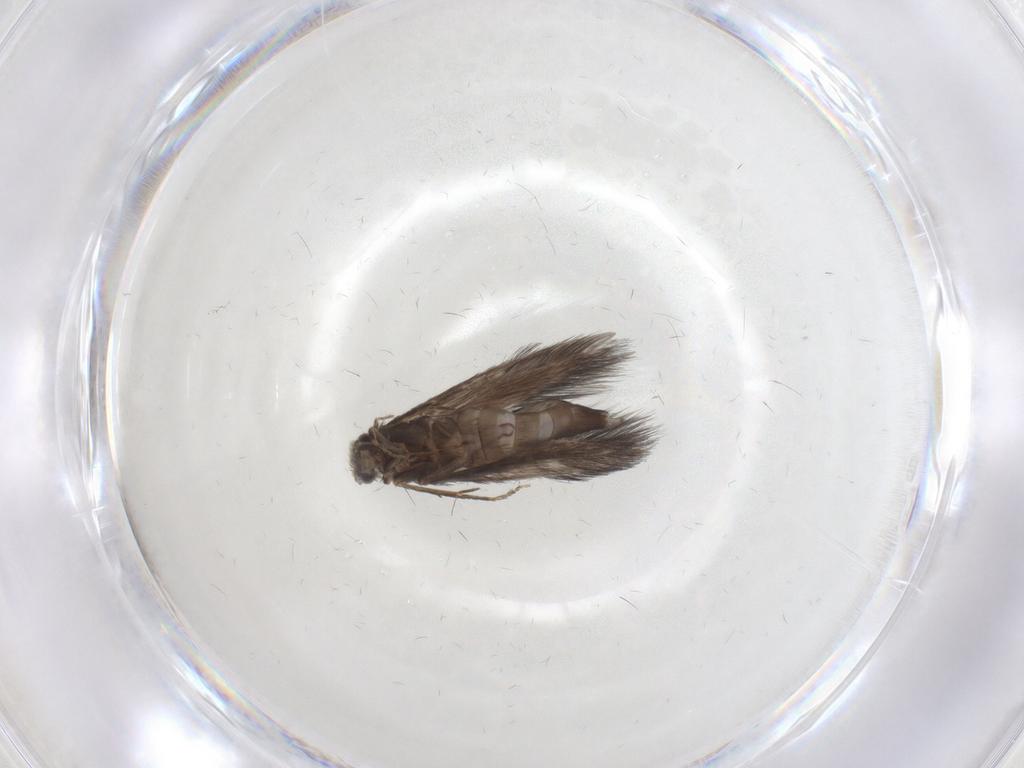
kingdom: Animalia
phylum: Arthropoda
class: Insecta
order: Trichoptera
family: Hydroptilidae
